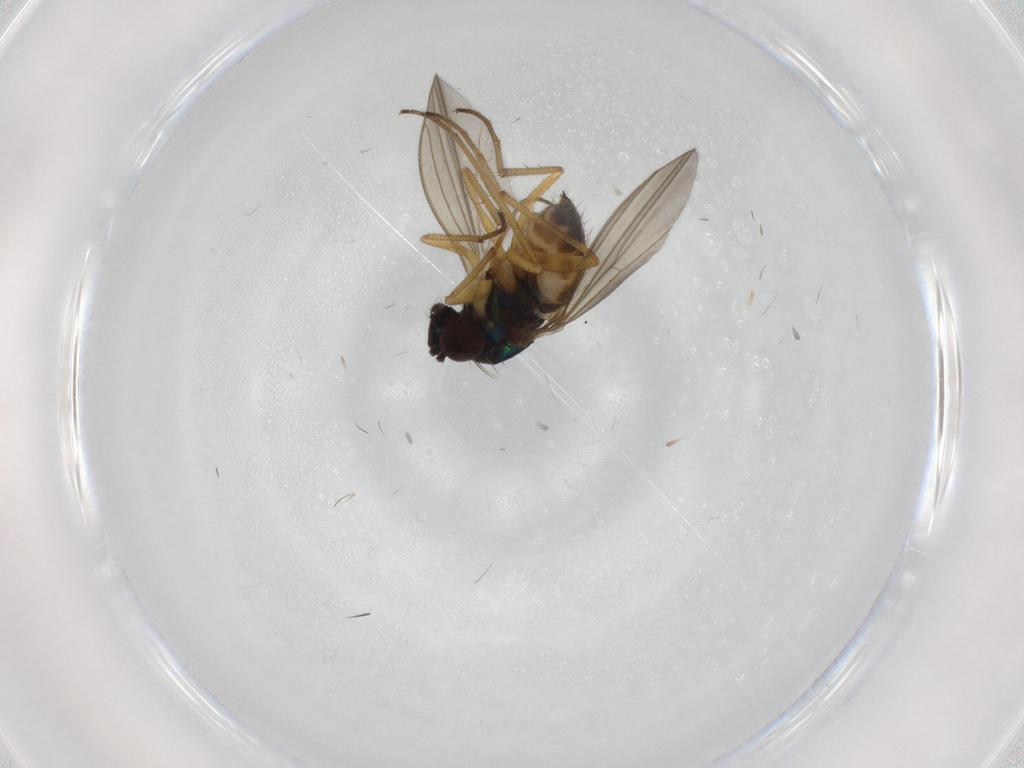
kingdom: Animalia
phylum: Arthropoda
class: Insecta
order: Diptera
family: Dolichopodidae
